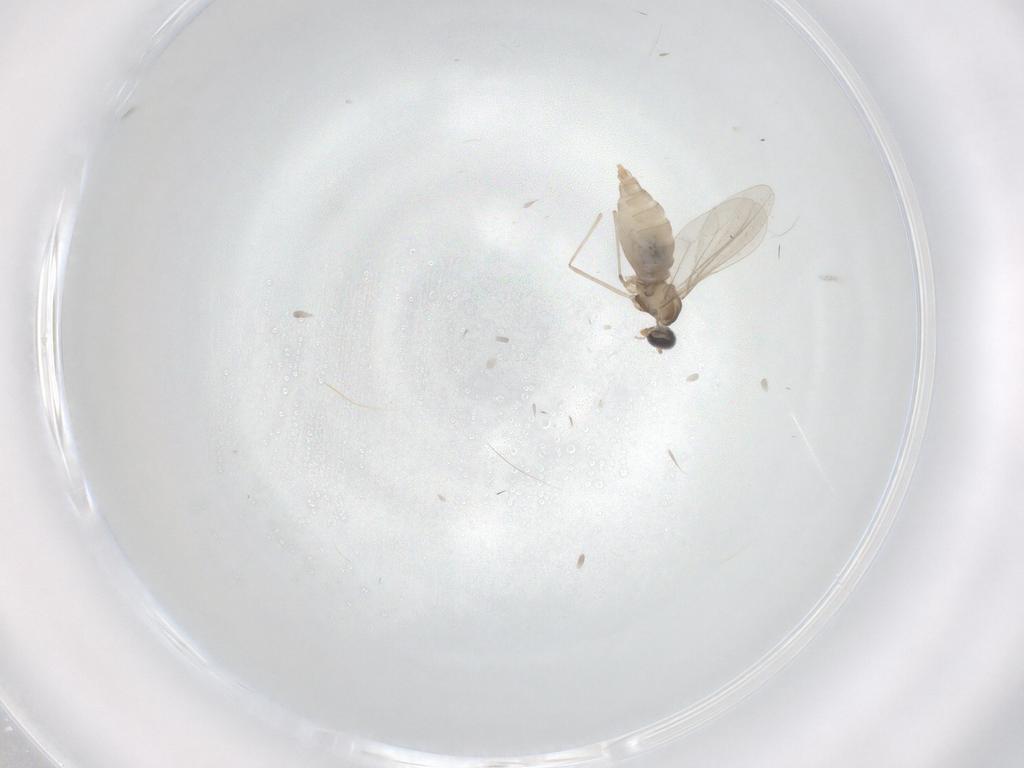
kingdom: Animalia
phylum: Arthropoda
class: Insecta
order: Diptera
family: Cecidomyiidae
